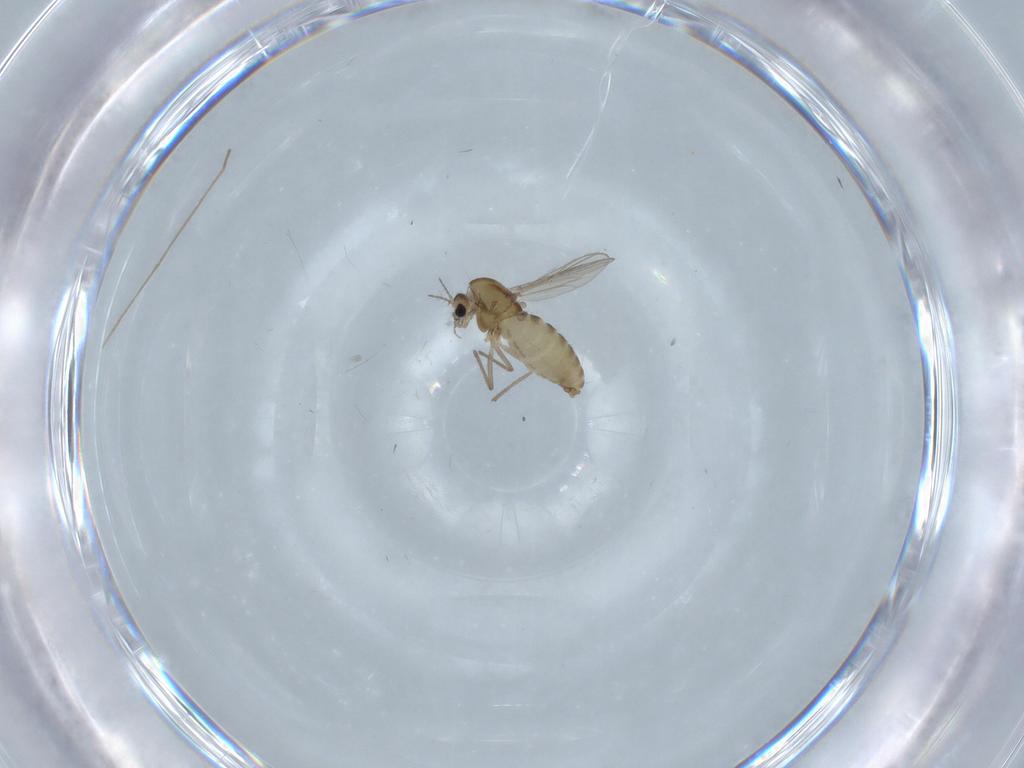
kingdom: Animalia
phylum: Arthropoda
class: Insecta
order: Diptera
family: Chironomidae
